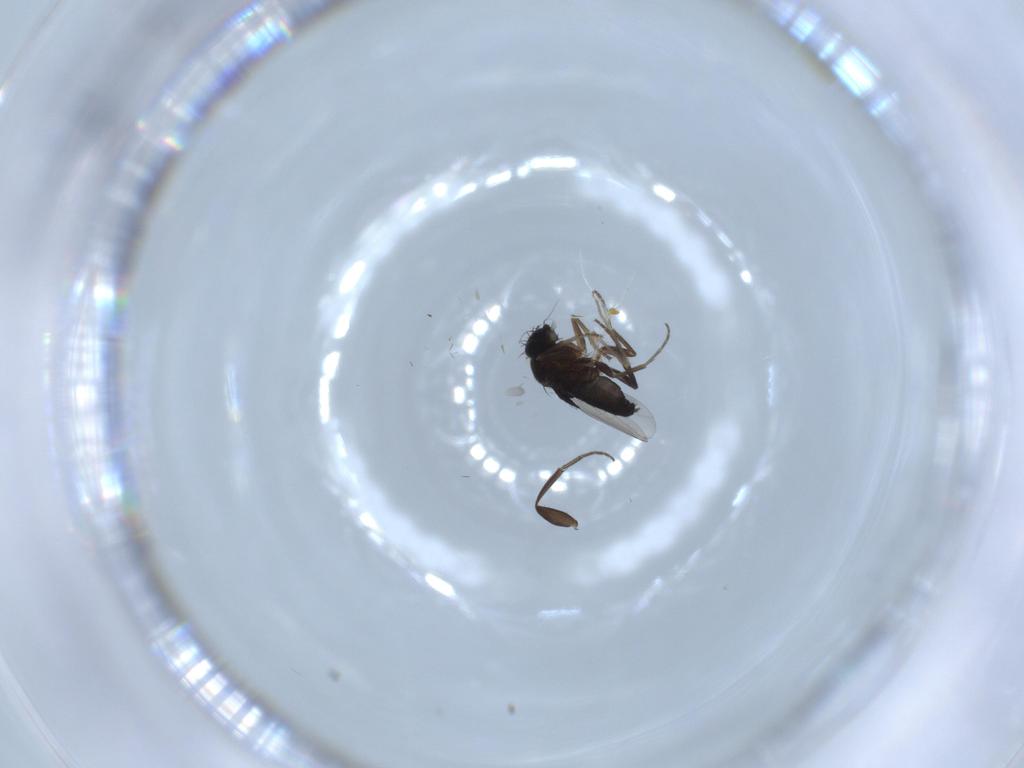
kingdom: Animalia
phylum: Arthropoda
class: Insecta
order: Diptera
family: Phoridae
